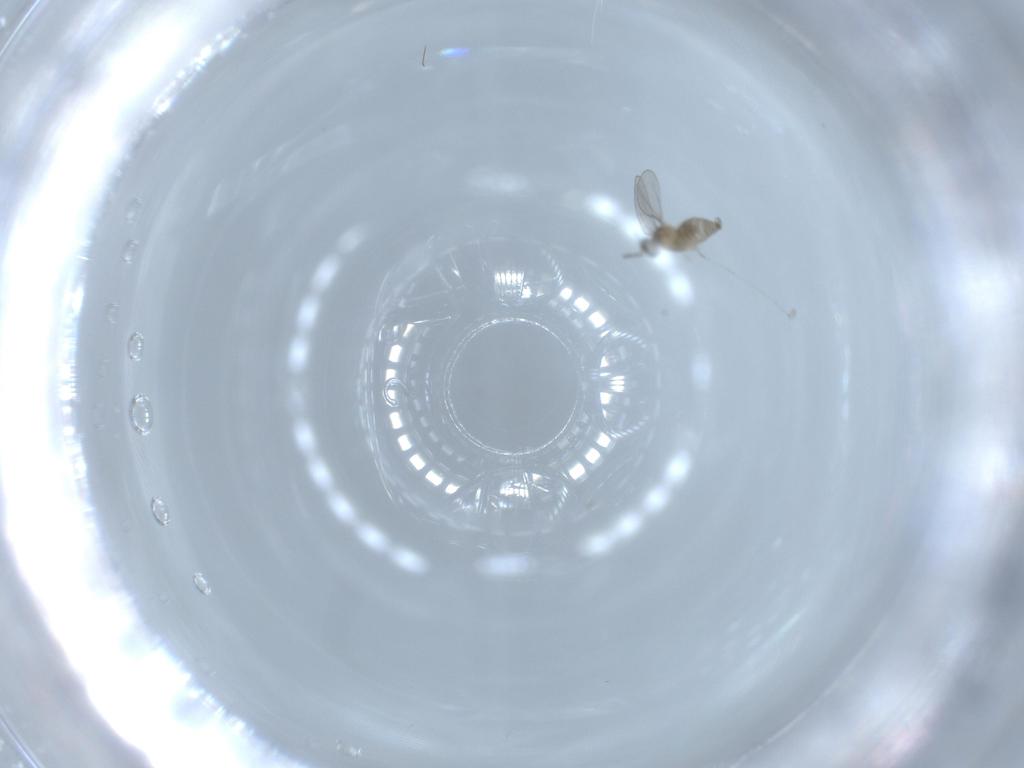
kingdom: Animalia
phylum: Arthropoda
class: Insecta
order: Diptera
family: Cecidomyiidae
